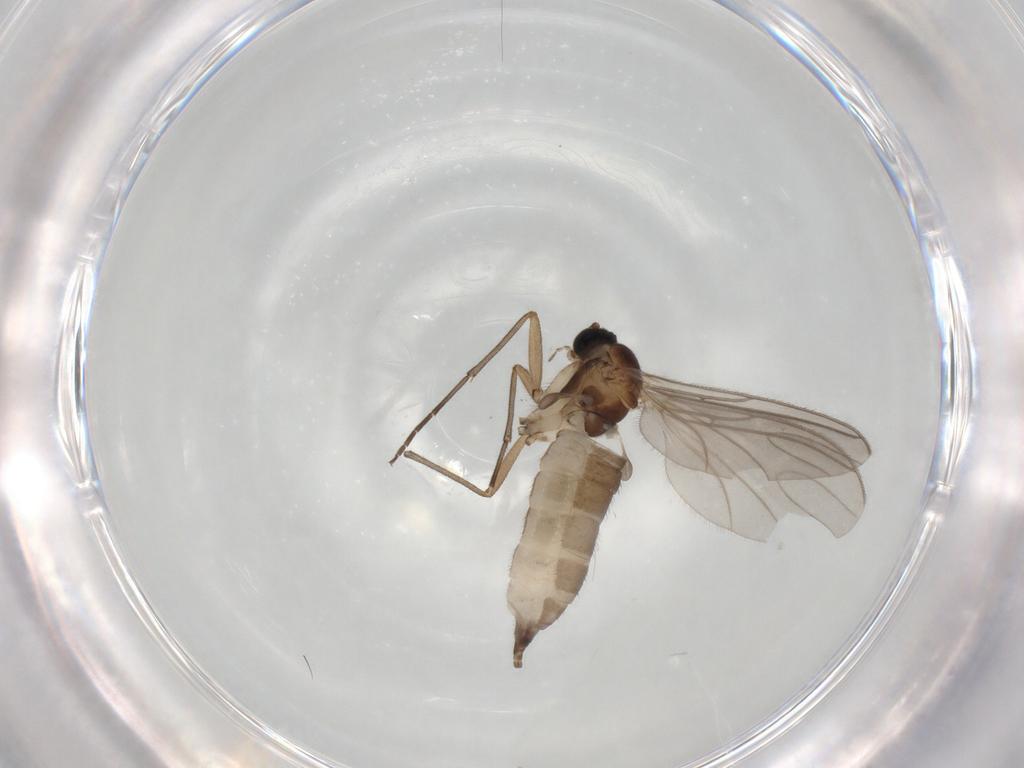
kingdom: Animalia
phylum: Arthropoda
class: Insecta
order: Diptera
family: Sciaridae
